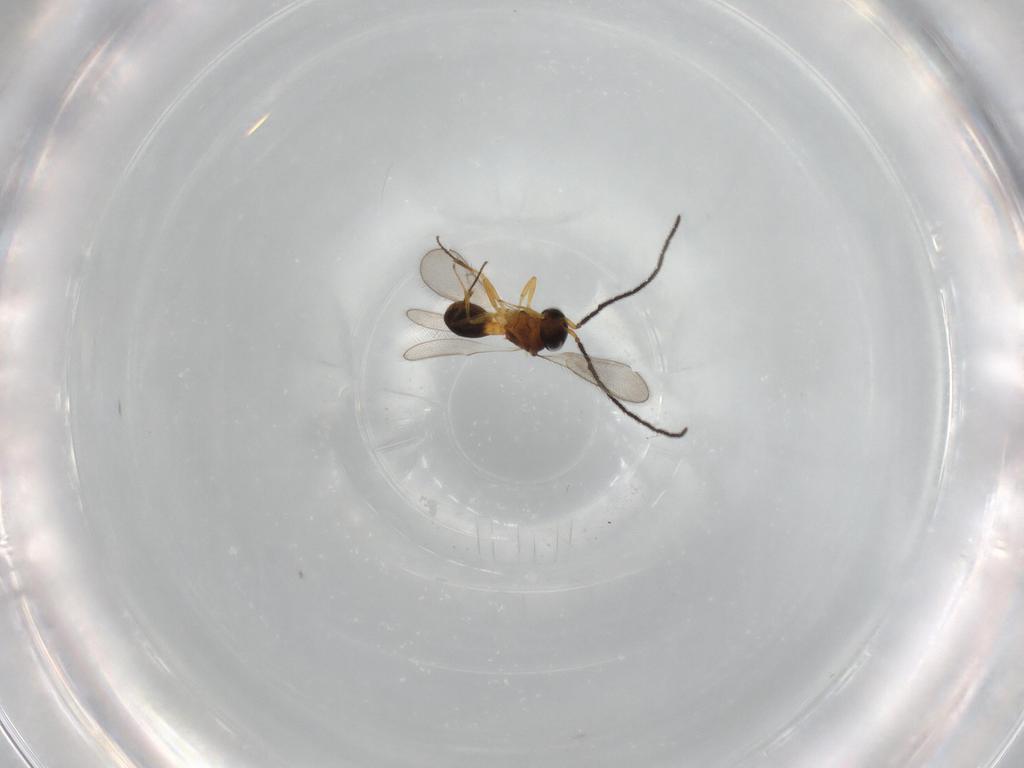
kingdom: Animalia
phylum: Arthropoda
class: Insecta
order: Hymenoptera
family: Scelionidae
